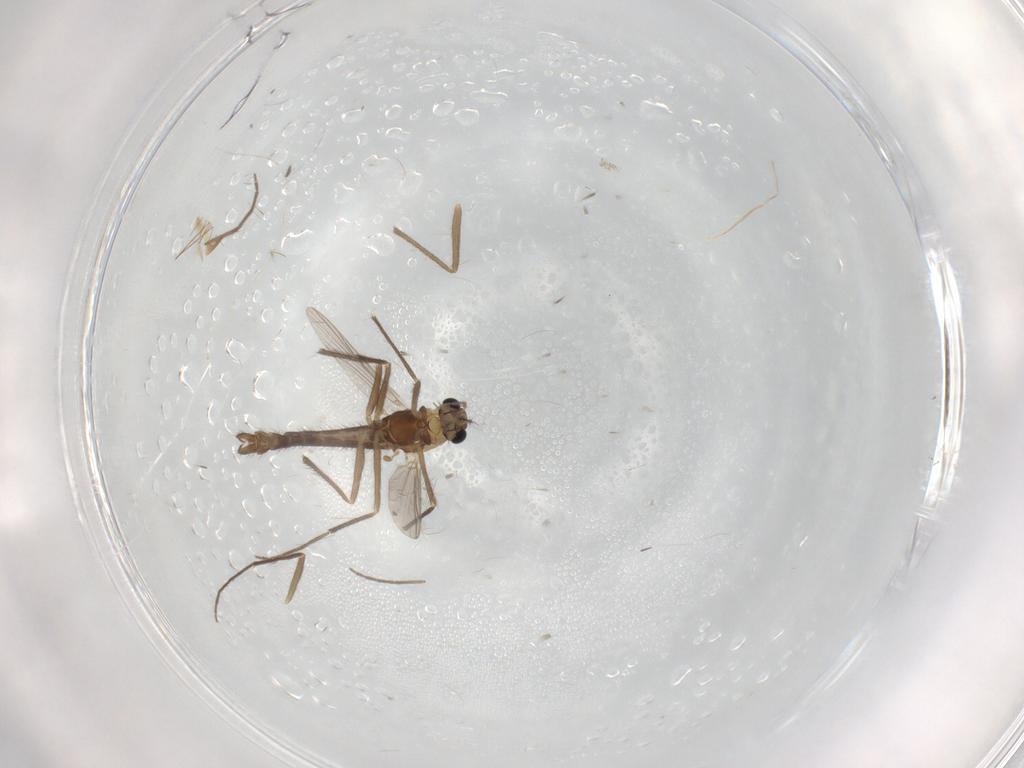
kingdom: Animalia
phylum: Arthropoda
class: Insecta
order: Diptera
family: Chironomidae
